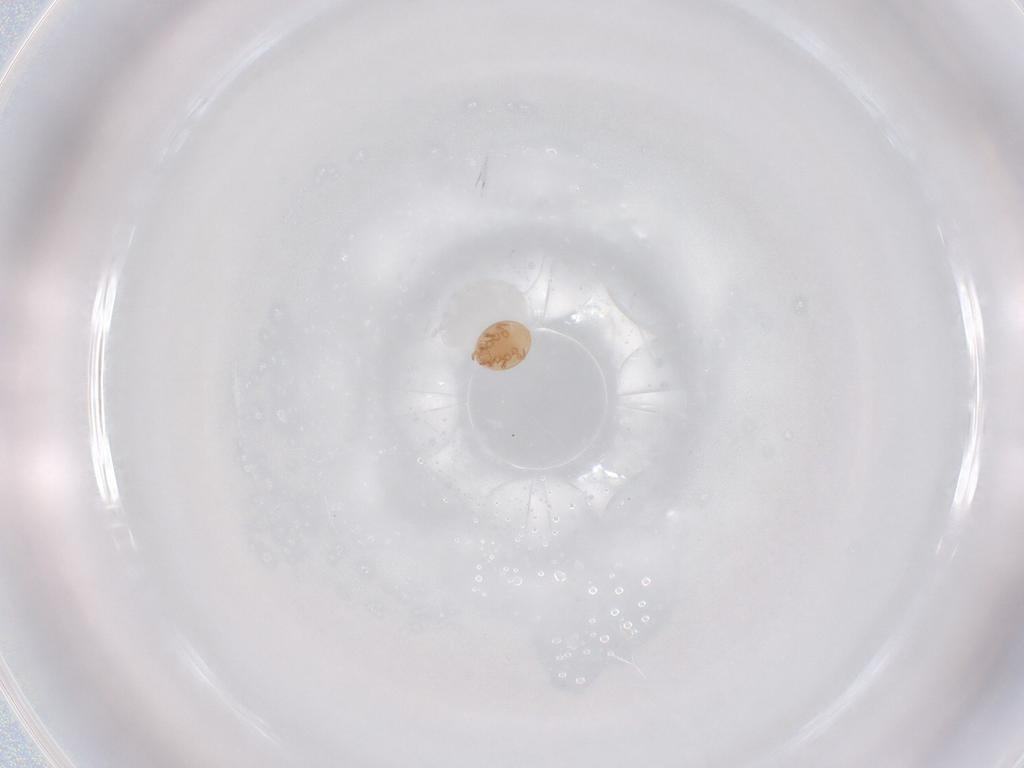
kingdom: Animalia
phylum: Arthropoda
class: Arachnida
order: Mesostigmata
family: Trematuridae
